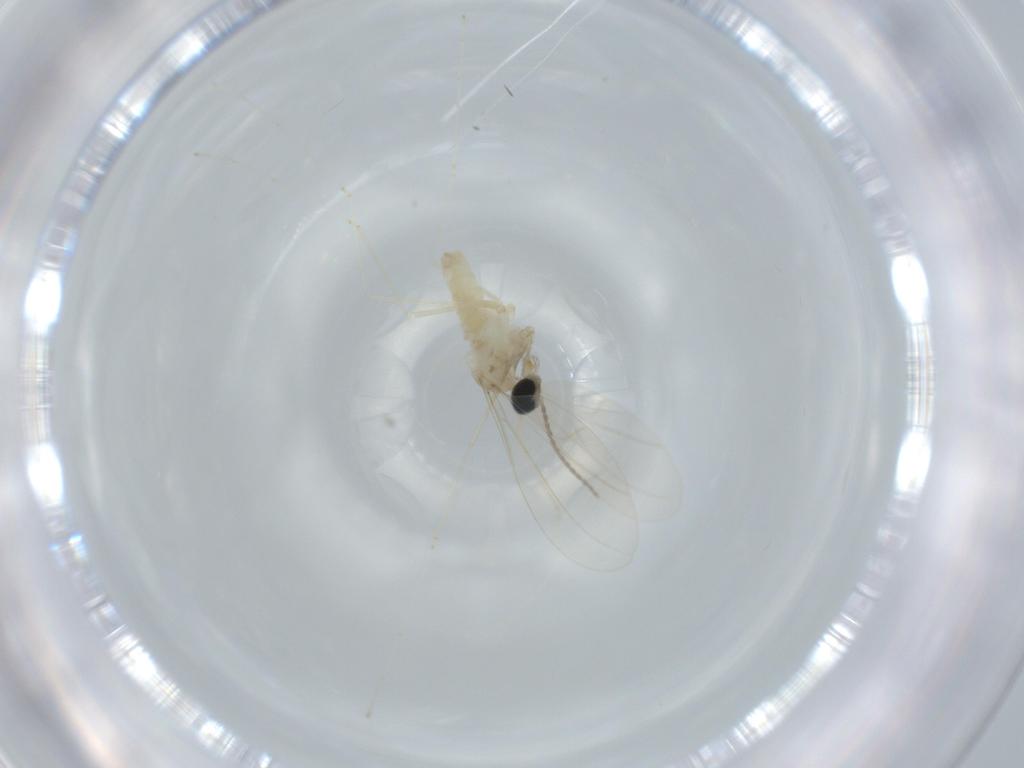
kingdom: Animalia
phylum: Arthropoda
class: Insecta
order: Diptera
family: Cecidomyiidae
